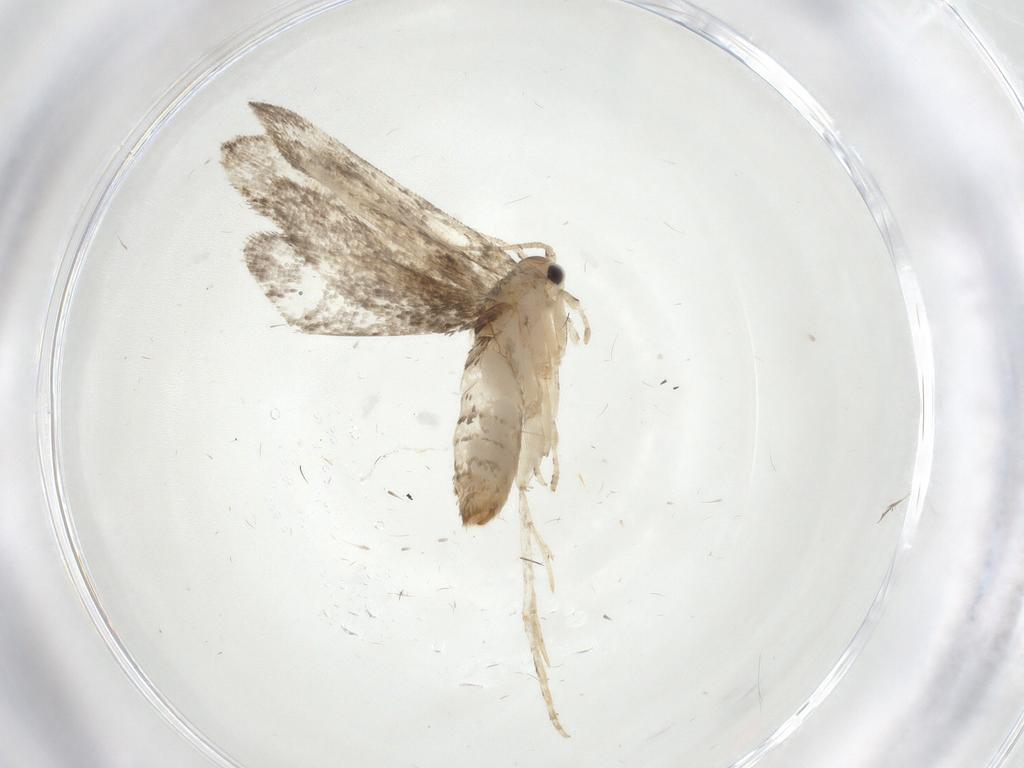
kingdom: Animalia
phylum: Arthropoda
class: Insecta
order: Lepidoptera
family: Tineidae
